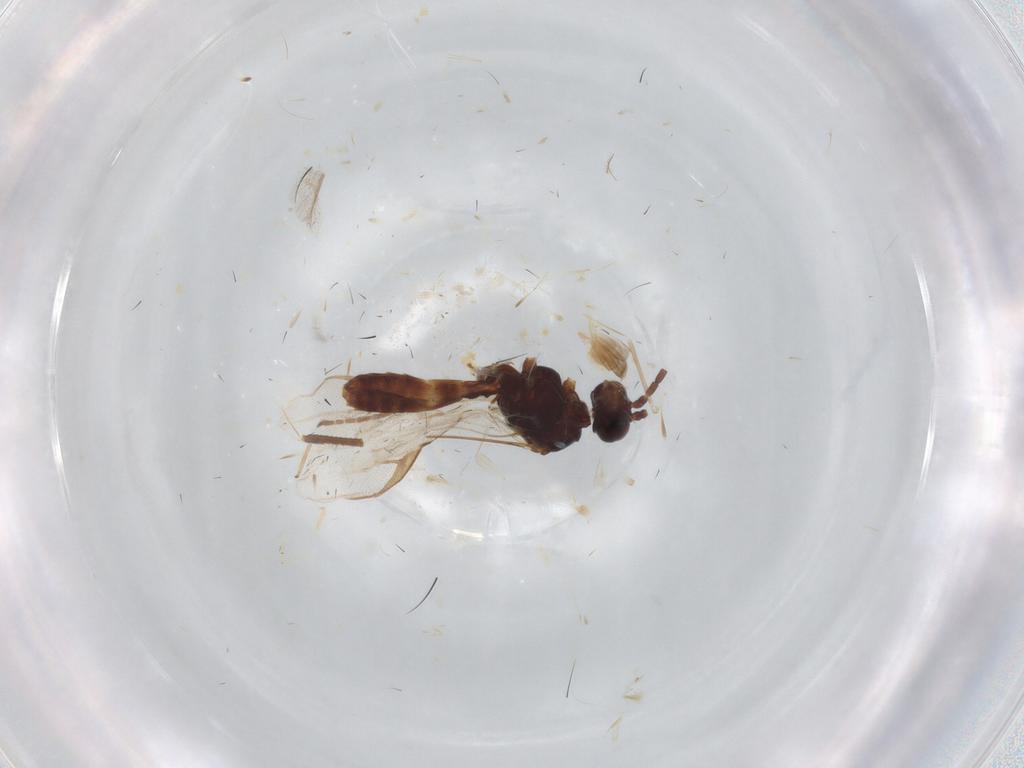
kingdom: Animalia
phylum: Arthropoda
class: Insecta
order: Hymenoptera
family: Braconidae
